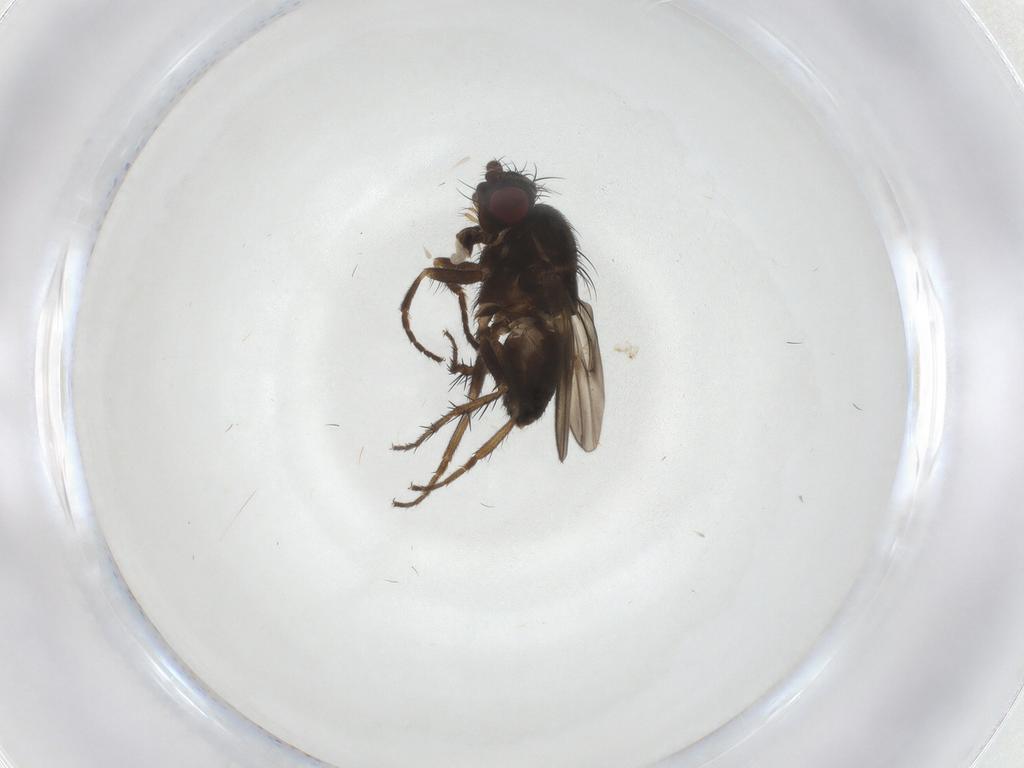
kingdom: Animalia
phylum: Arthropoda
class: Insecta
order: Diptera
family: Sphaeroceridae
